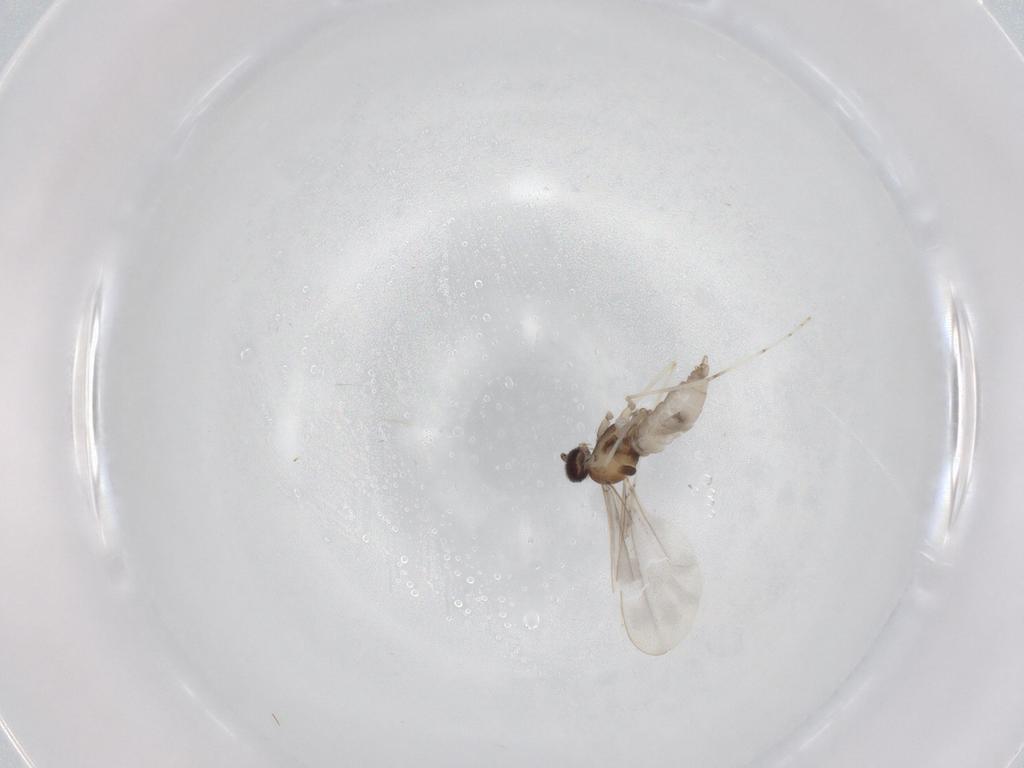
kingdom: Animalia
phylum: Arthropoda
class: Insecta
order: Diptera
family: Cecidomyiidae
